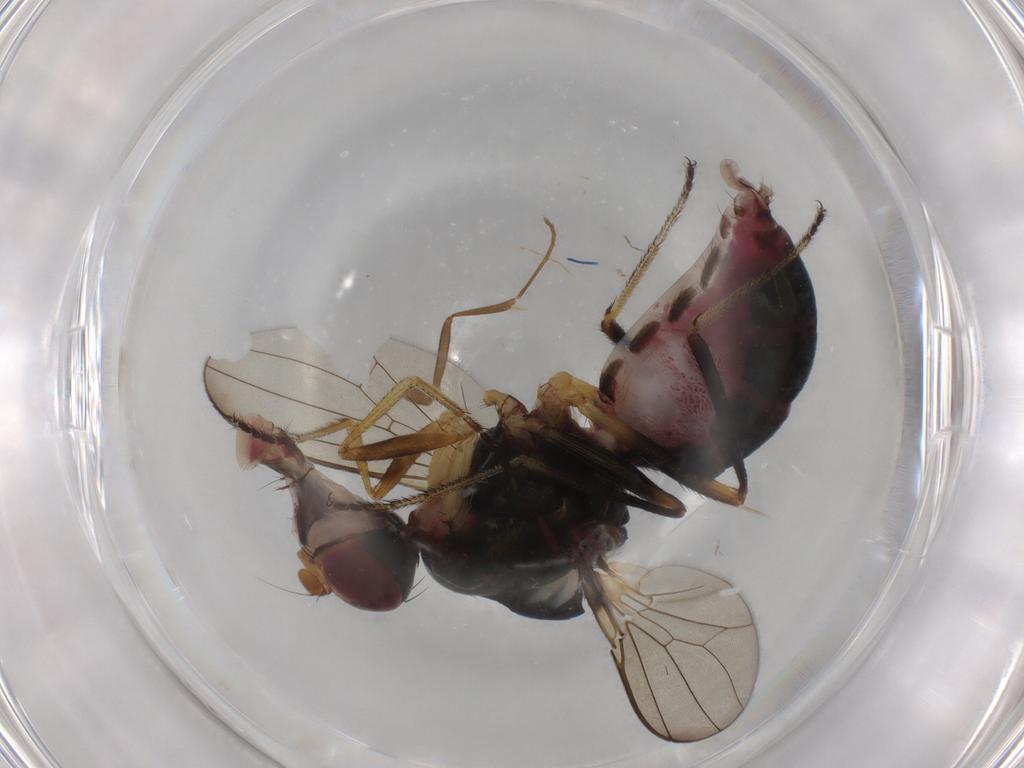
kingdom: Animalia
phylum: Arthropoda
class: Insecta
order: Diptera
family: Sepsidae
